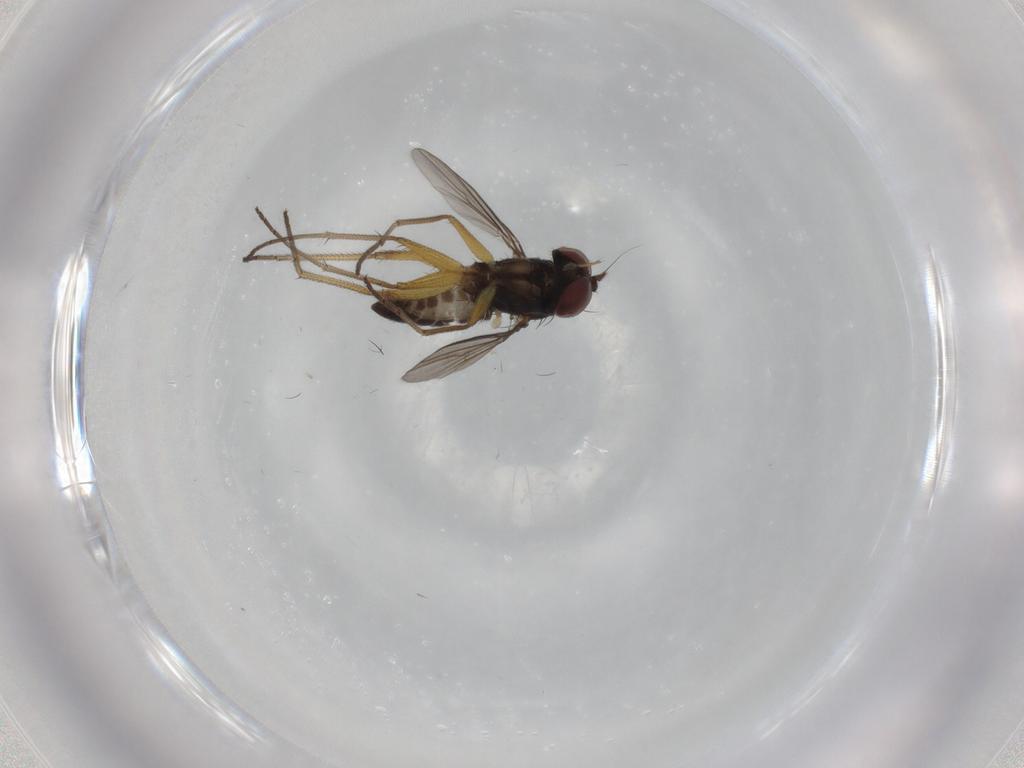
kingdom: Animalia
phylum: Arthropoda
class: Insecta
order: Diptera
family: Dolichopodidae
